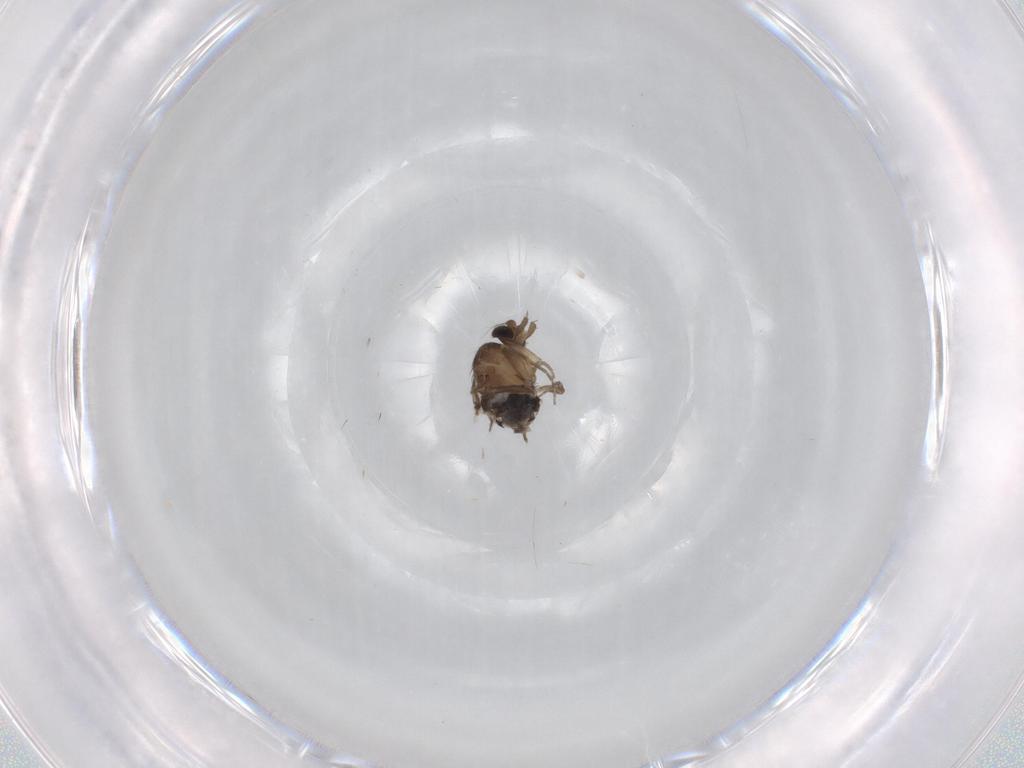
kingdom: Animalia
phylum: Arthropoda
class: Insecta
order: Diptera
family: Phoridae
